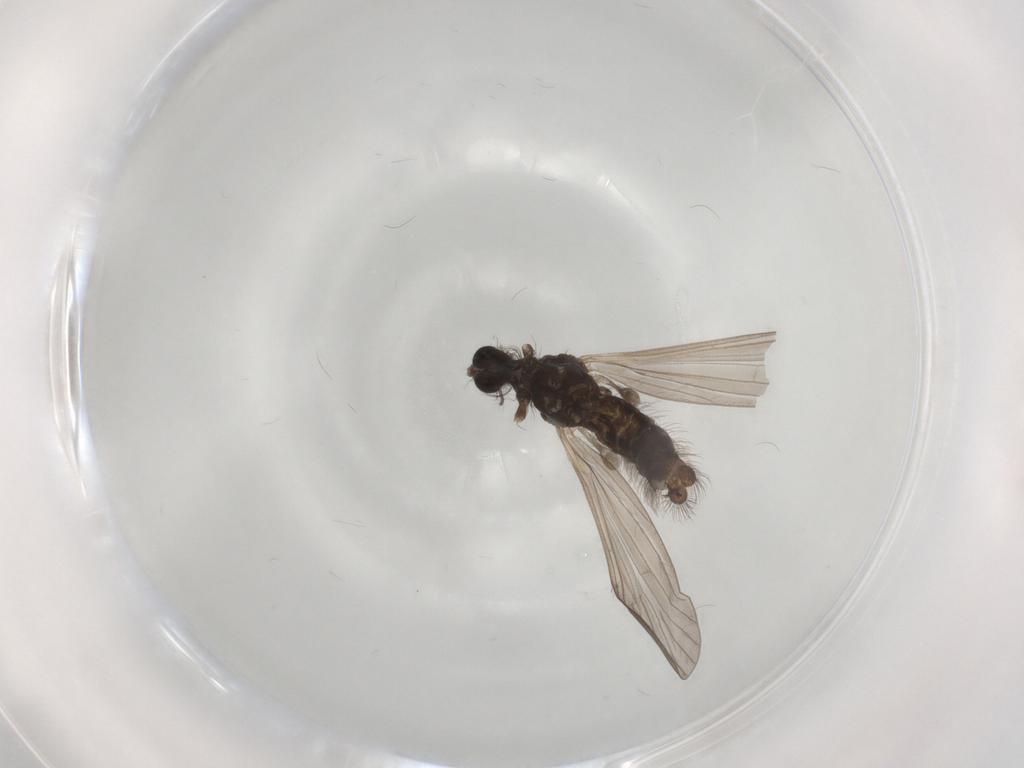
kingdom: Animalia
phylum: Arthropoda
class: Insecta
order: Diptera
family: Limoniidae
